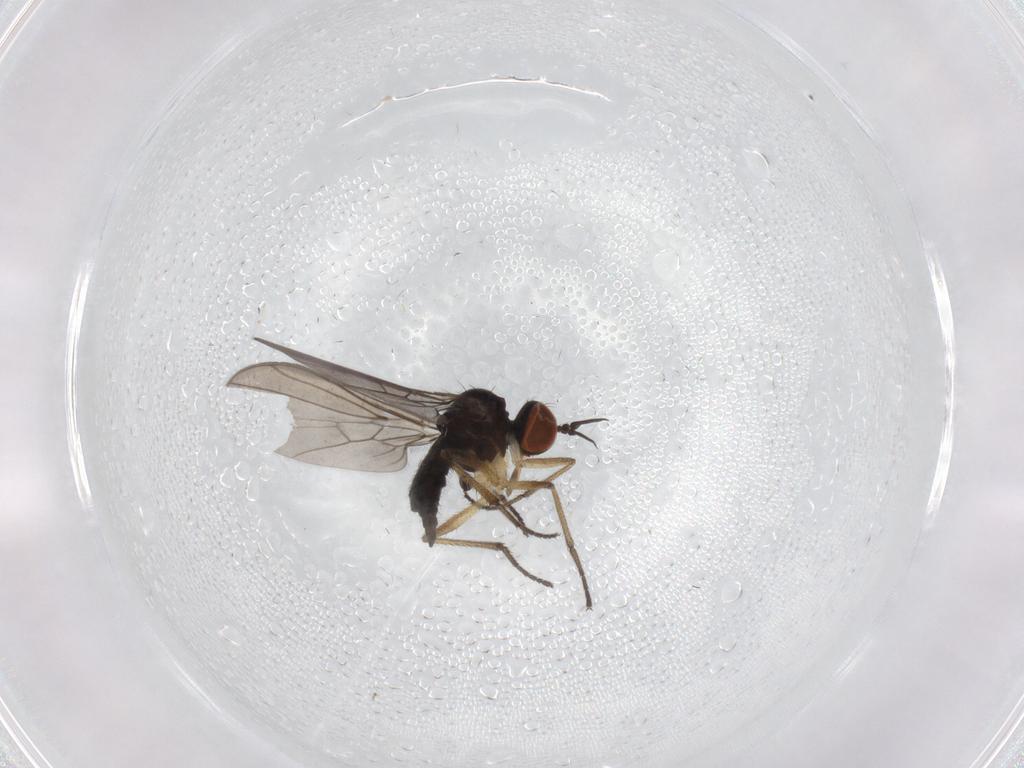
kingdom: Animalia
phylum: Arthropoda
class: Insecta
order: Diptera
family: Empididae
